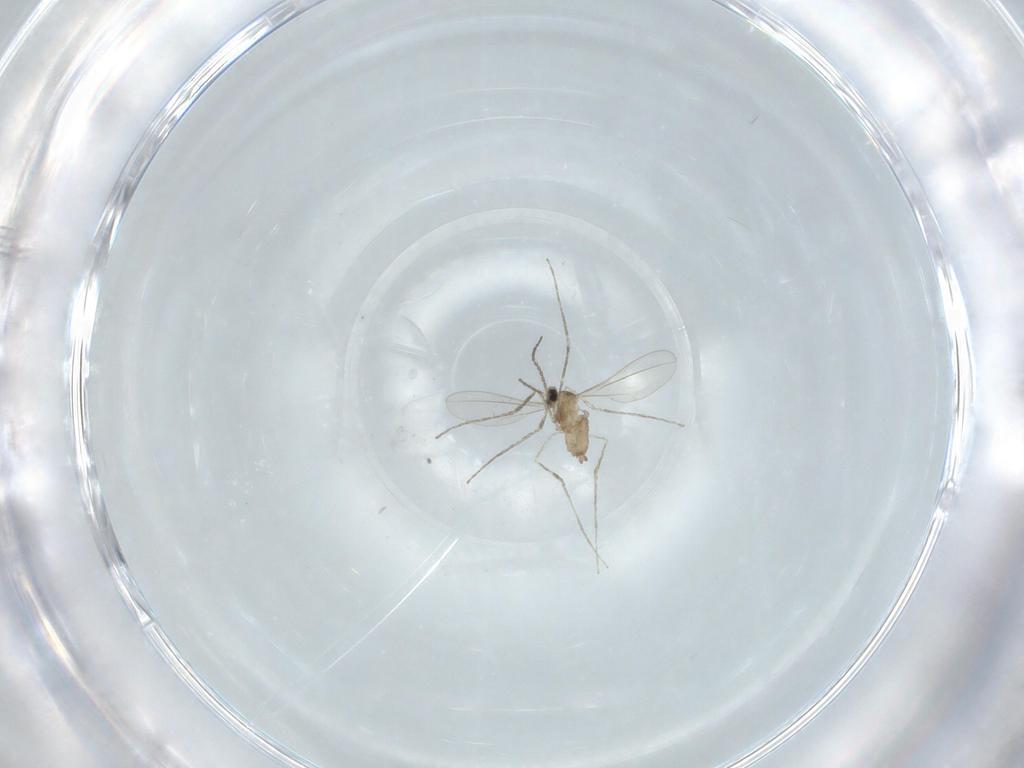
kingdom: Animalia
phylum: Arthropoda
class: Insecta
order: Diptera
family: Cecidomyiidae
